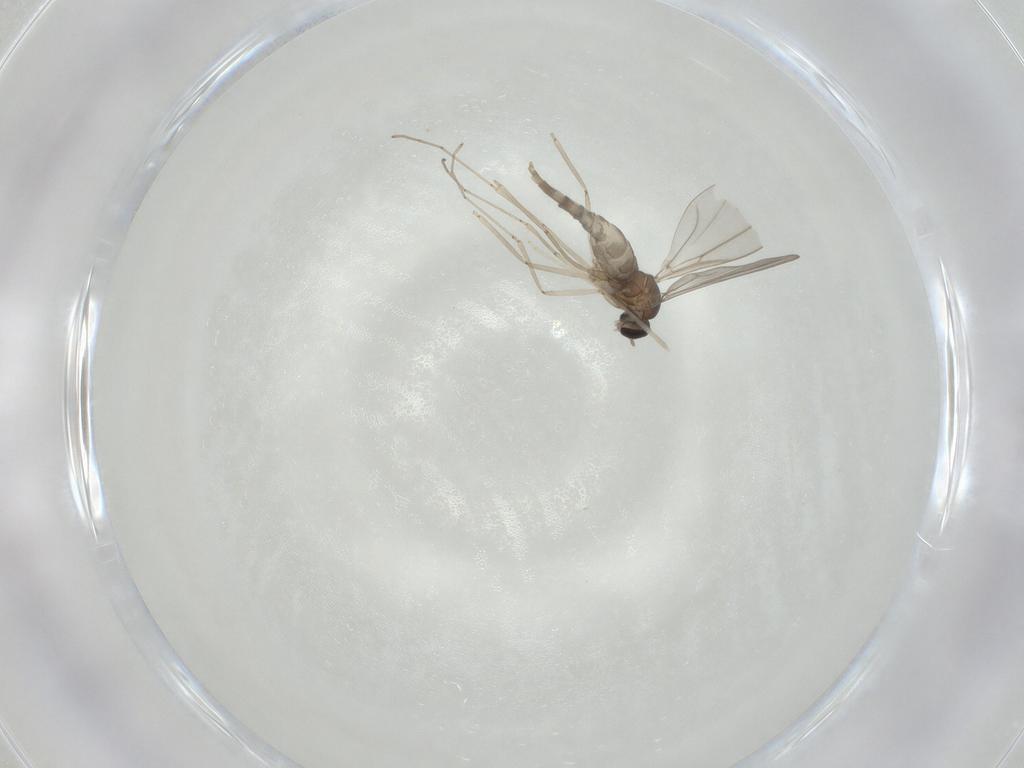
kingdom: Animalia
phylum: Arthropoda
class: Insecta
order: Diptera
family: Cecidomyiidae
